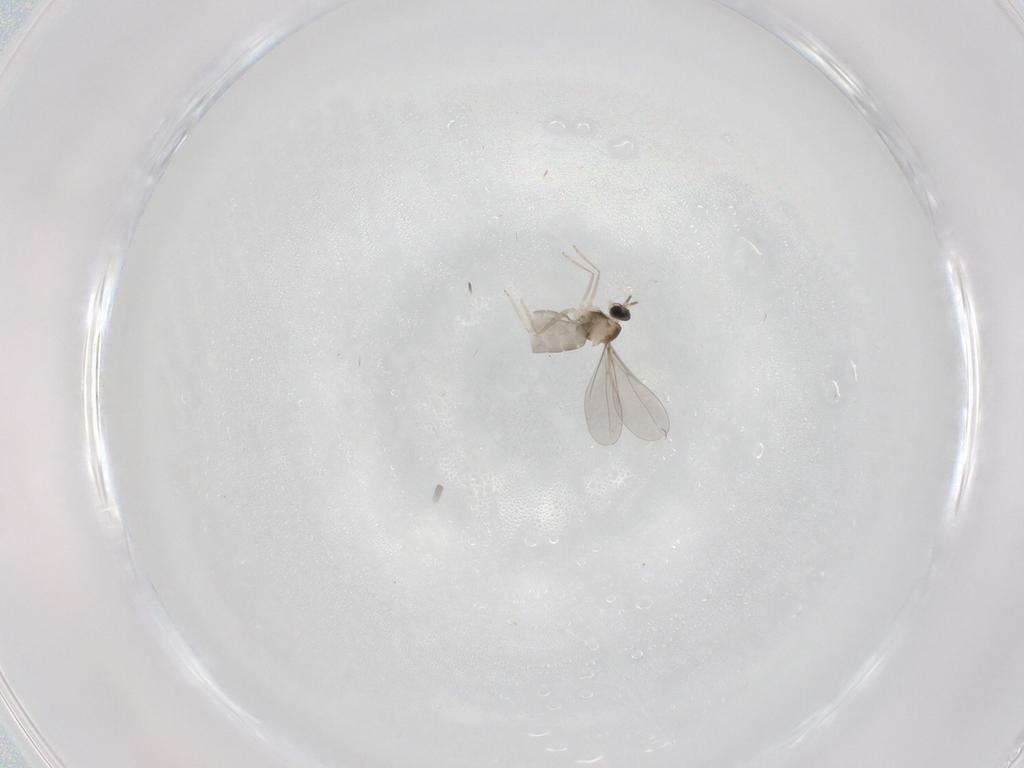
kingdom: Animalia
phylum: Arthropoda
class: Insecta
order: Diptera
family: Cecidomyiidae
